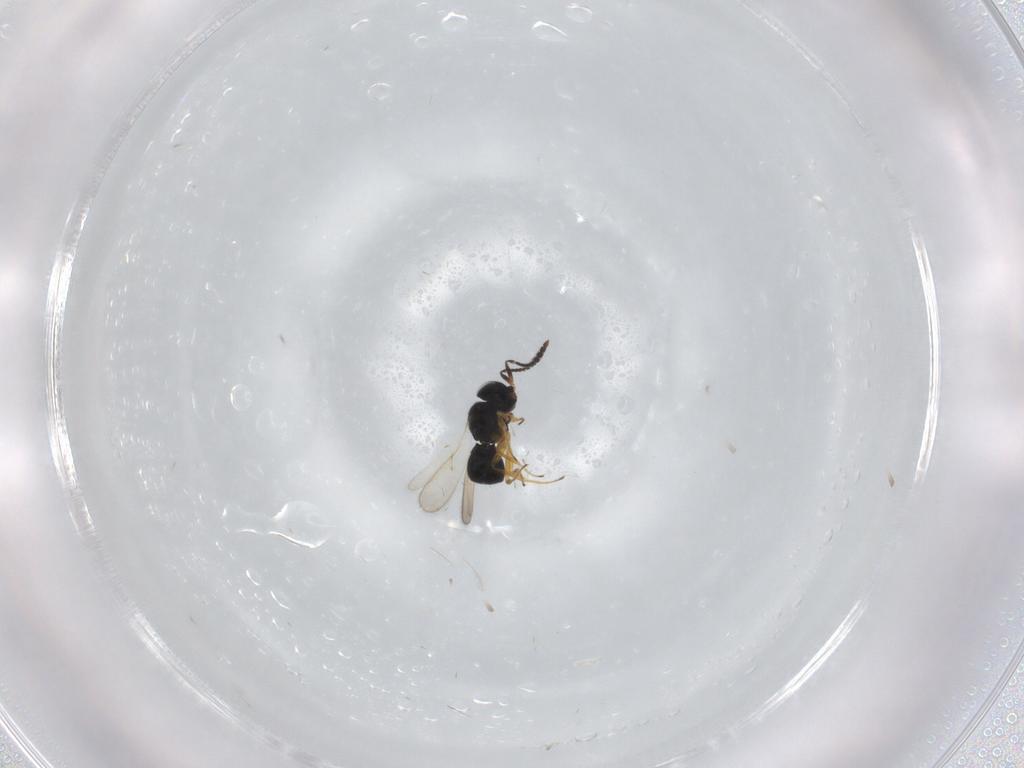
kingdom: Animalia
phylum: Arthropoda
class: Insecta
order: Hymenoptera
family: Scelionidae
